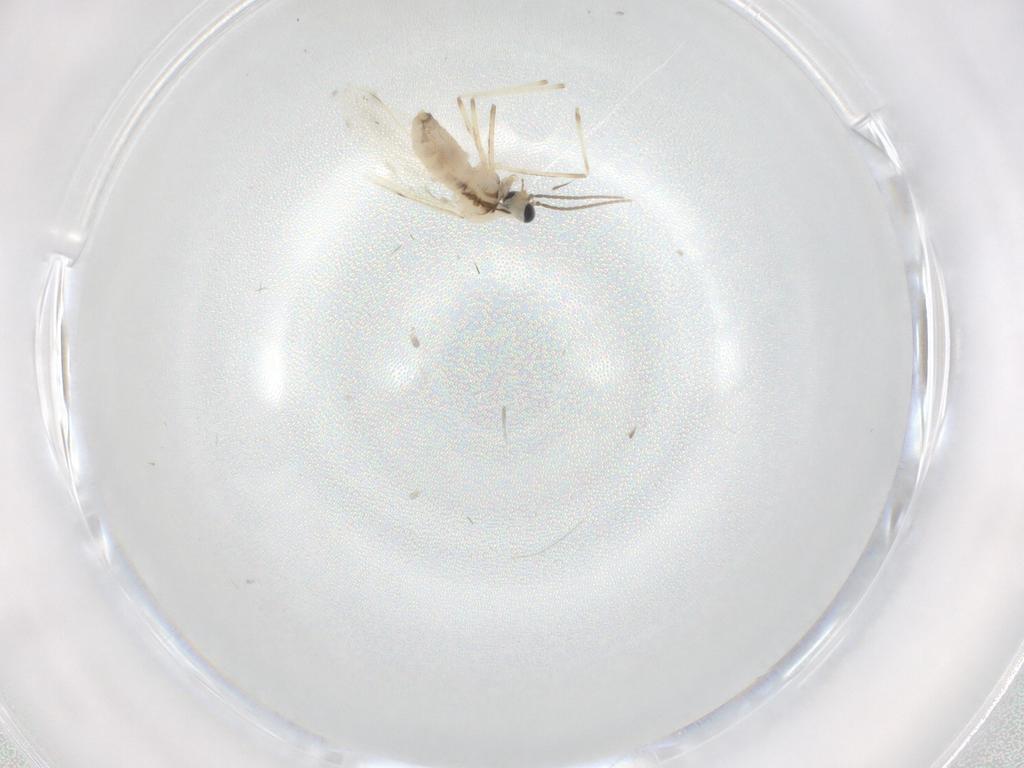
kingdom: Animalia
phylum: Arthropoda
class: Insecta
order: Diptera
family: Cecidomyiidae
